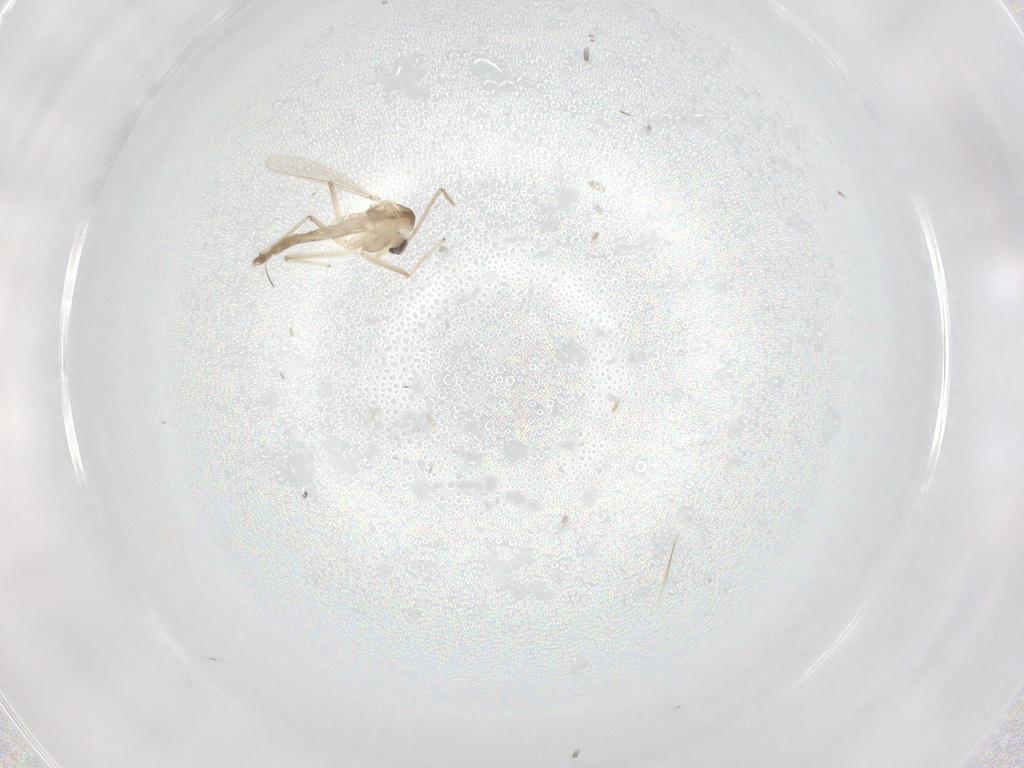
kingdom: Animalia
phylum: Arthropoda
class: Insecta
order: Diptera
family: Chironomidae
